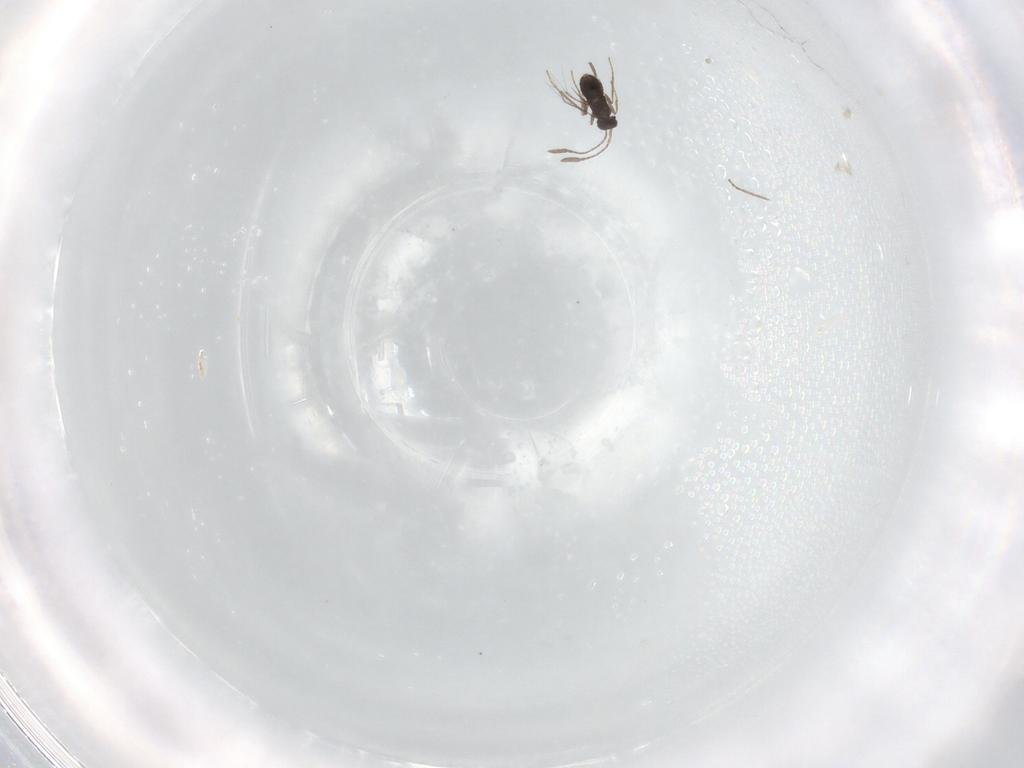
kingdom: Animalia
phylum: Arthropoda
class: Insecta
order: Hymenoptera
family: Mymaridae
